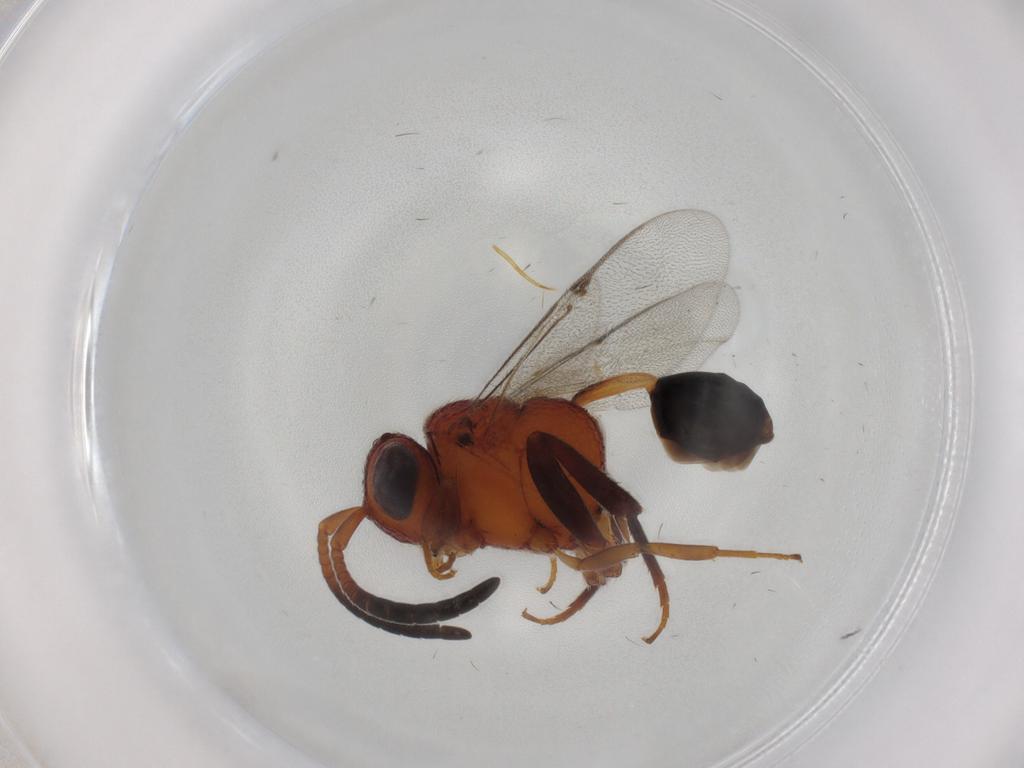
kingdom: Animalia
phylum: Arthropoda
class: Insecta
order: Hymenoptera
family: Evaniidae
